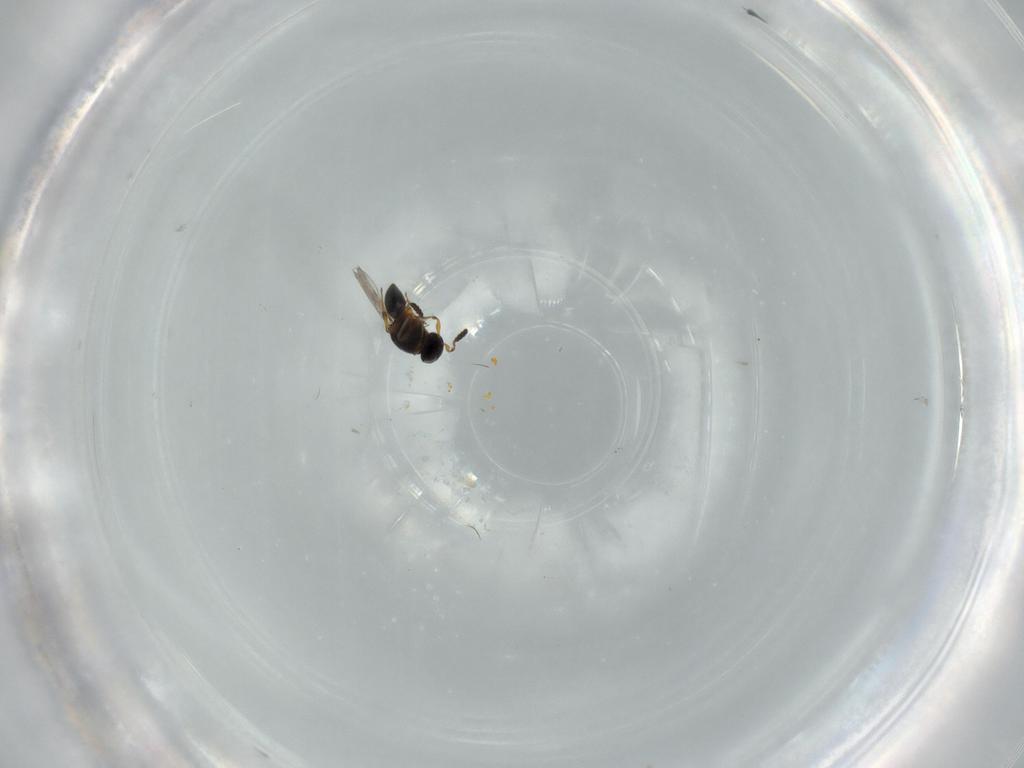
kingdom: Animalia
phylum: Arthropoda
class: Insecta
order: Hymenoptera
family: Platygastridae
